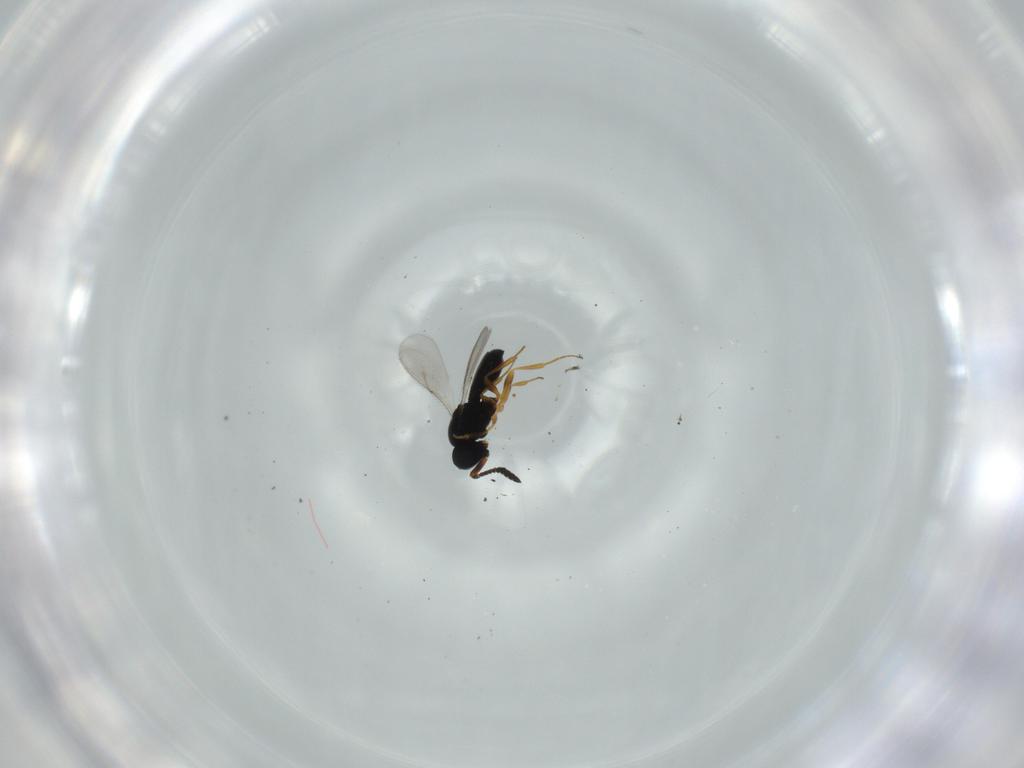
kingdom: Animalia
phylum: Arthropoda
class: Insecta
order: Hymenoptera
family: Scelionidae
